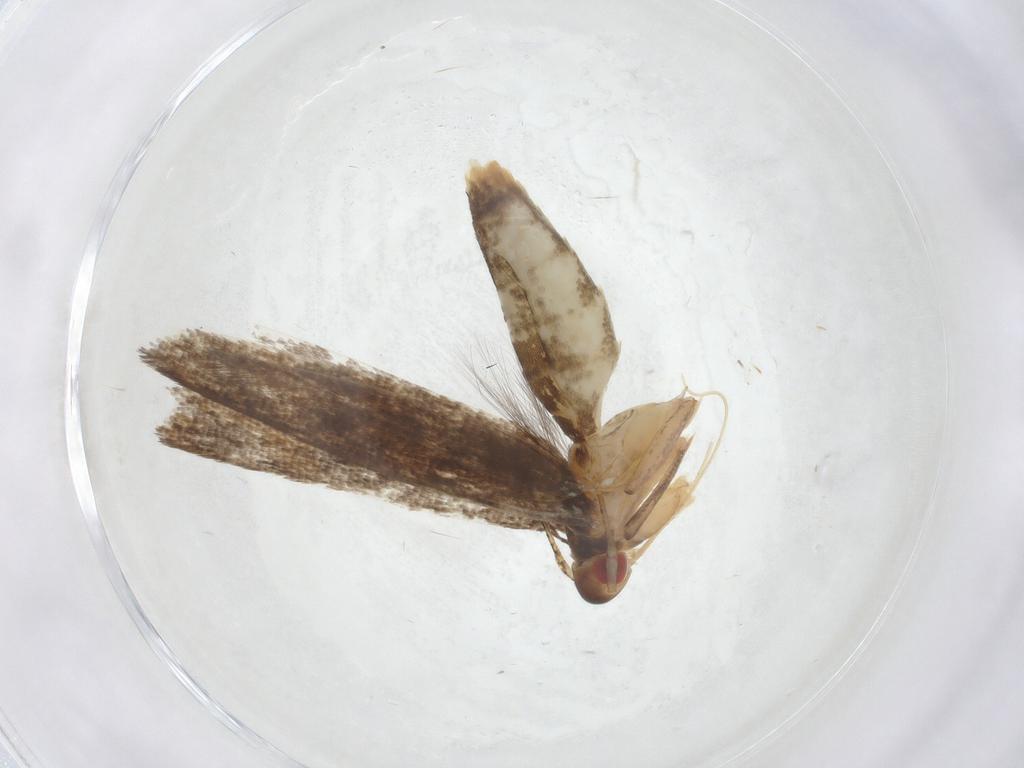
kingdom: Animalia
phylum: Arthropoda
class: Insecta
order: Lepidoptera
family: Cosmopterigidae
